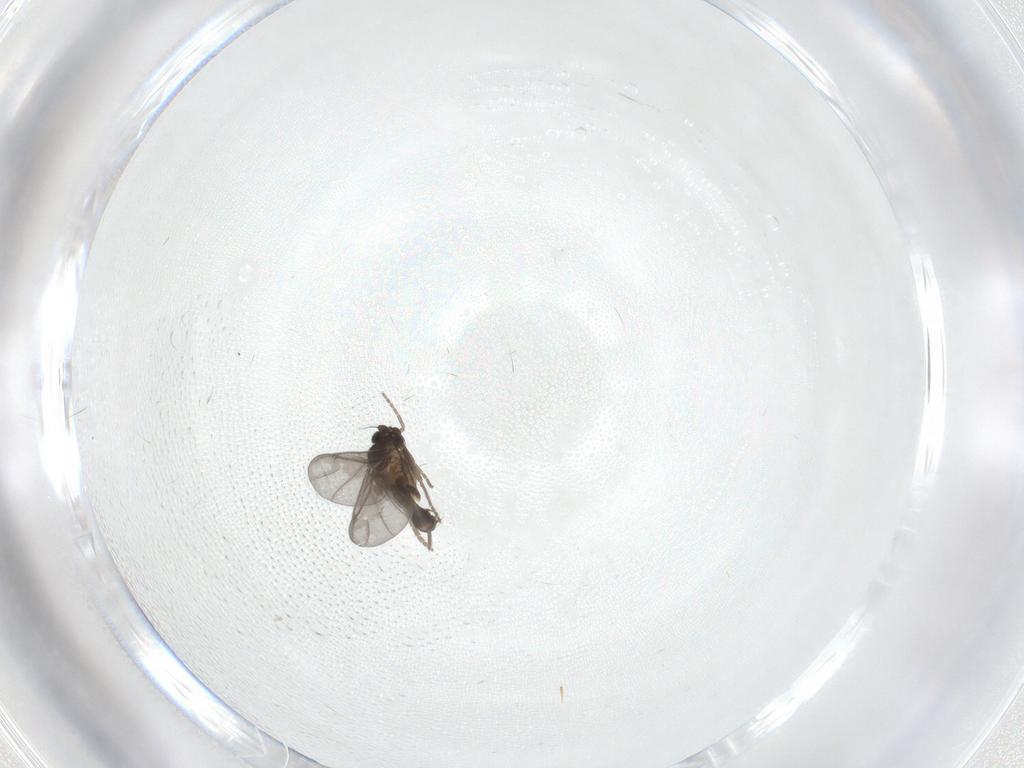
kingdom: Animalia
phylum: Arthropoda
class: Insecta
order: Diptera
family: Phoridae
